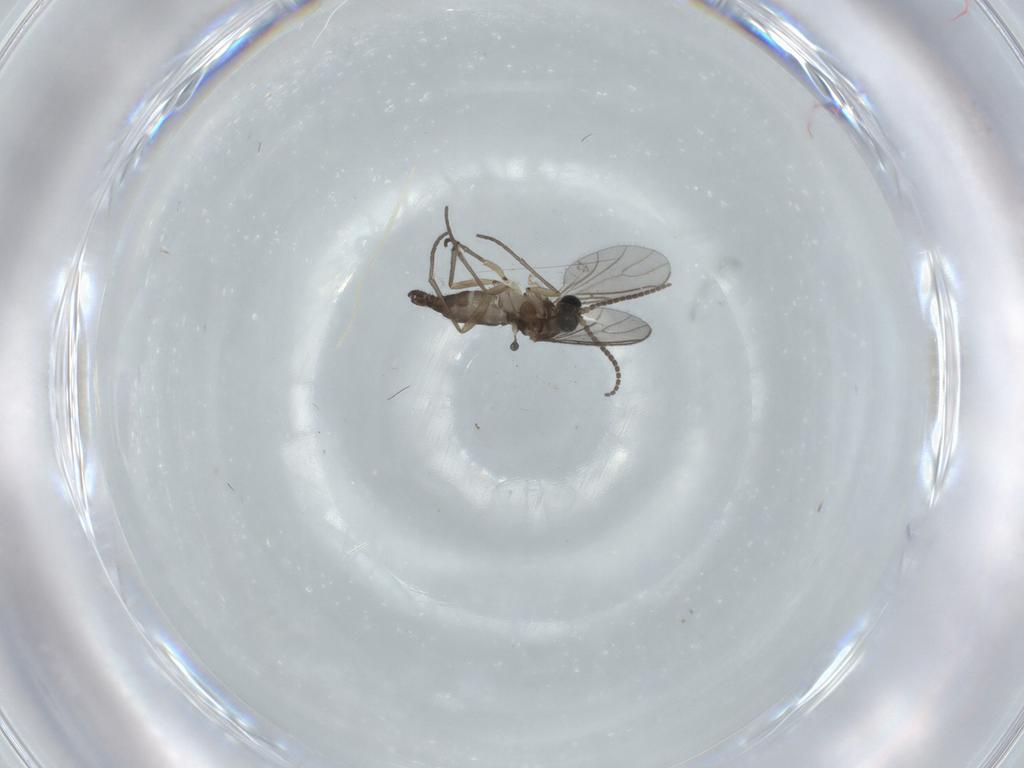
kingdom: Animalia
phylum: Arthropoda
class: Insecta
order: Diptera
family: Sciaridae
